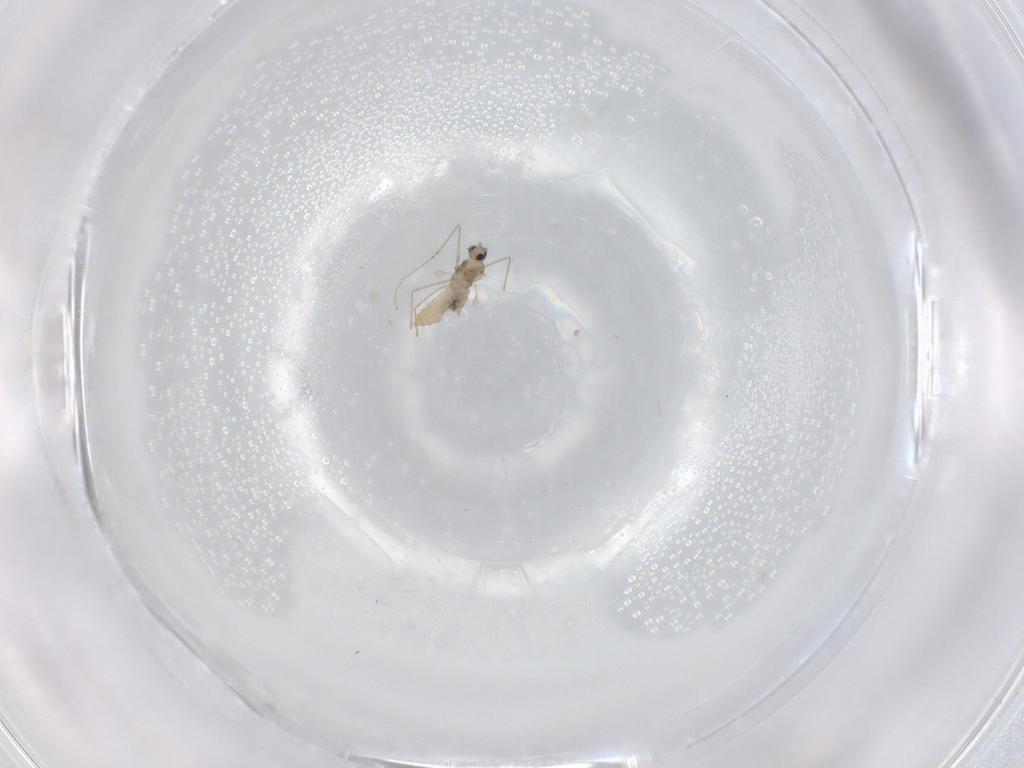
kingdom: Animalia
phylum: Arthropoda
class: Insecta
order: Diptera
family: Cecidomyiidae
